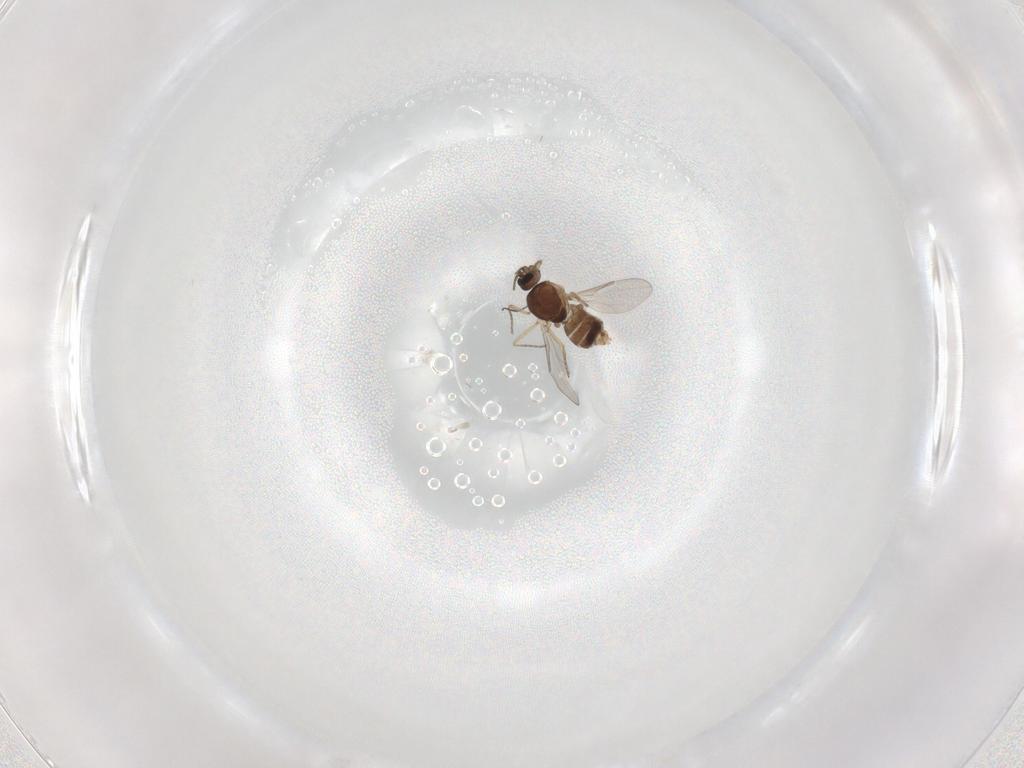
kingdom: Animalia
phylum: Arthropoda
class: Insecta
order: Diptera
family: Ceratopogonidae
